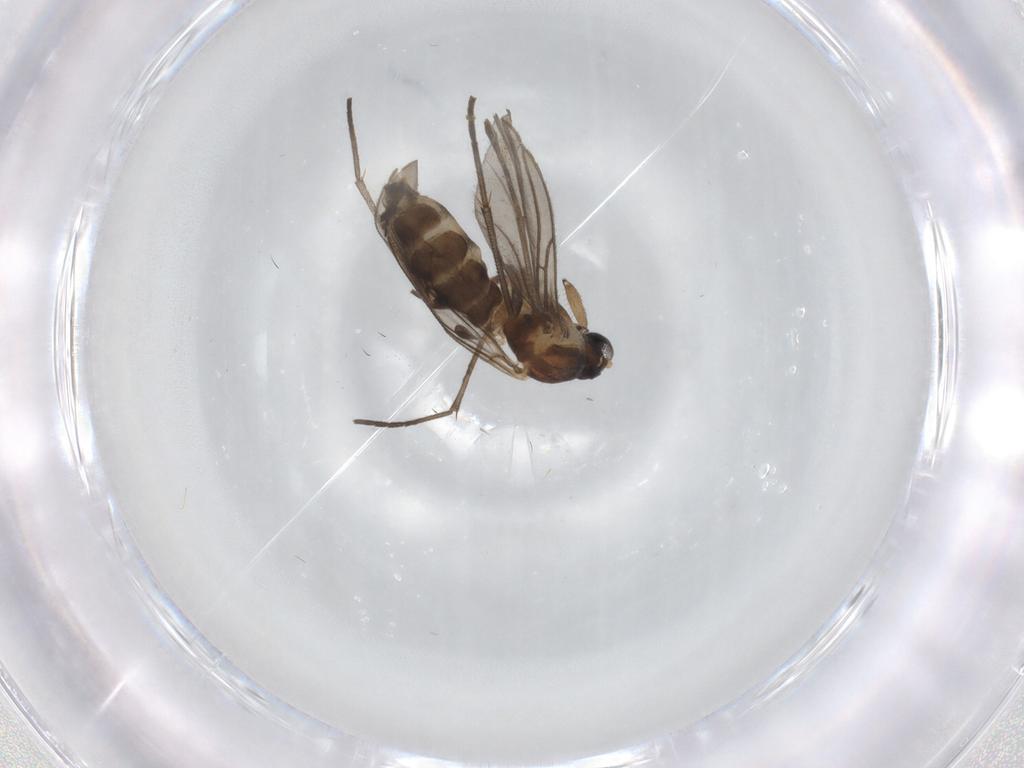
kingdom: Animalia
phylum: Arthropoda
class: Insecta
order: Diptera
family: Sciaridae
